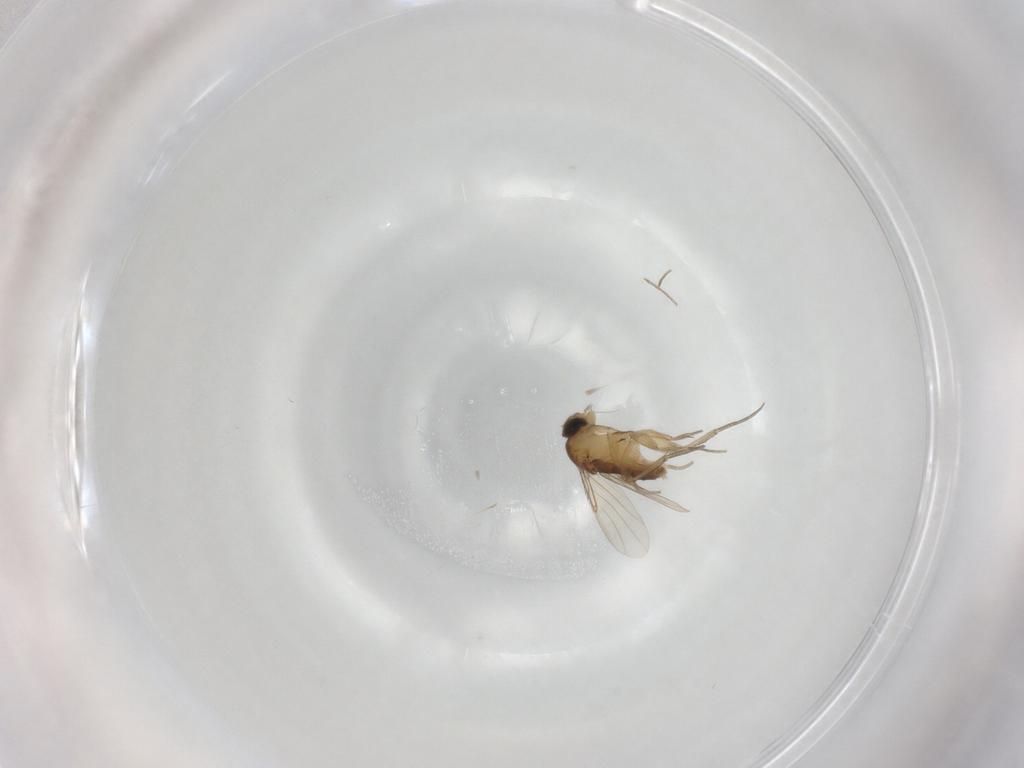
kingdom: Animalia
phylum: Arthropoda
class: Insecta
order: Diptera
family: Phoridae
